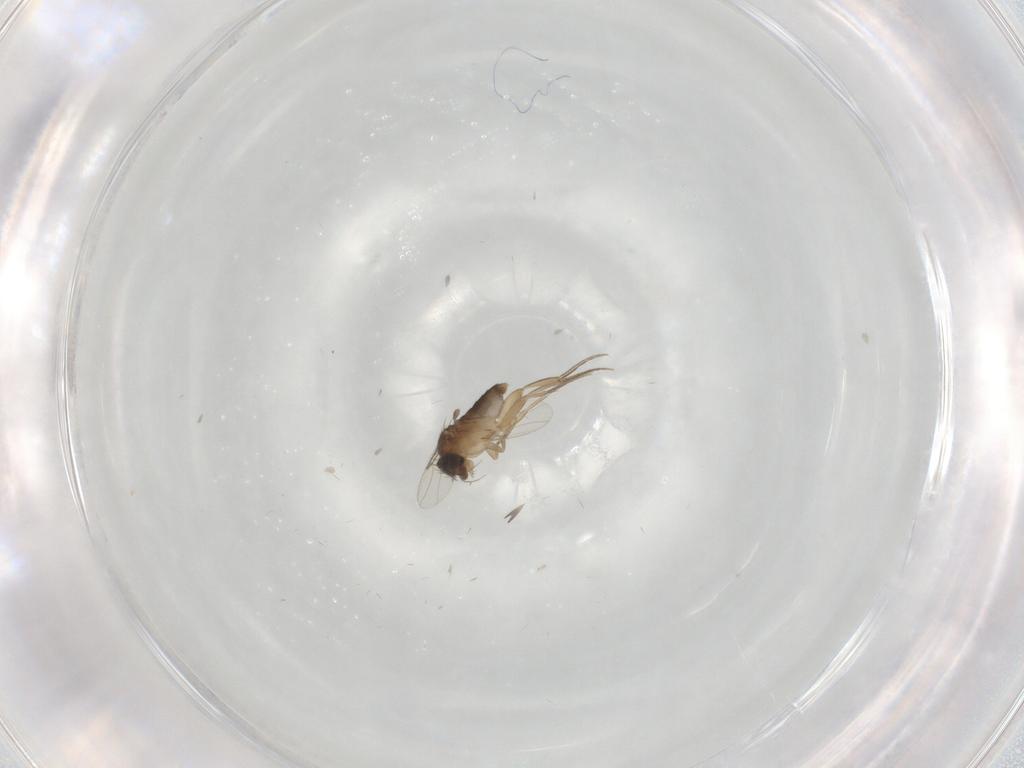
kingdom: Animalia
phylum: Arthropoda
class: Insecta
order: Diptera
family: Phoridae
